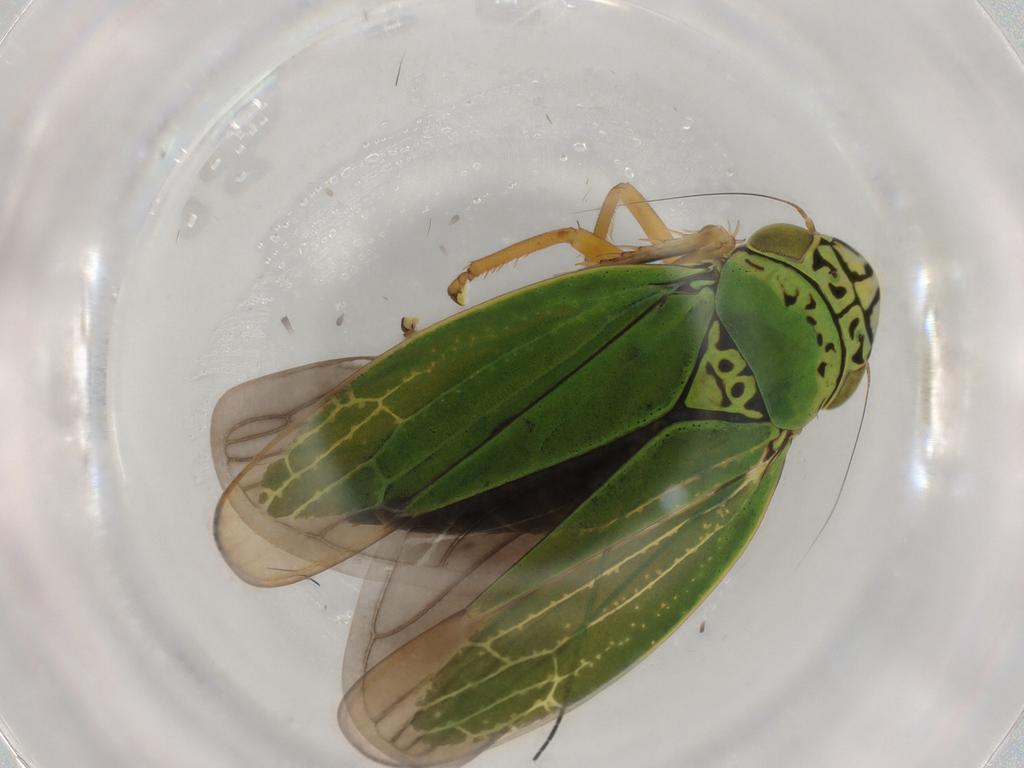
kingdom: Animalia
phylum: Arthropoda
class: Insecta
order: Hemiptera
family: Cicadellidae
